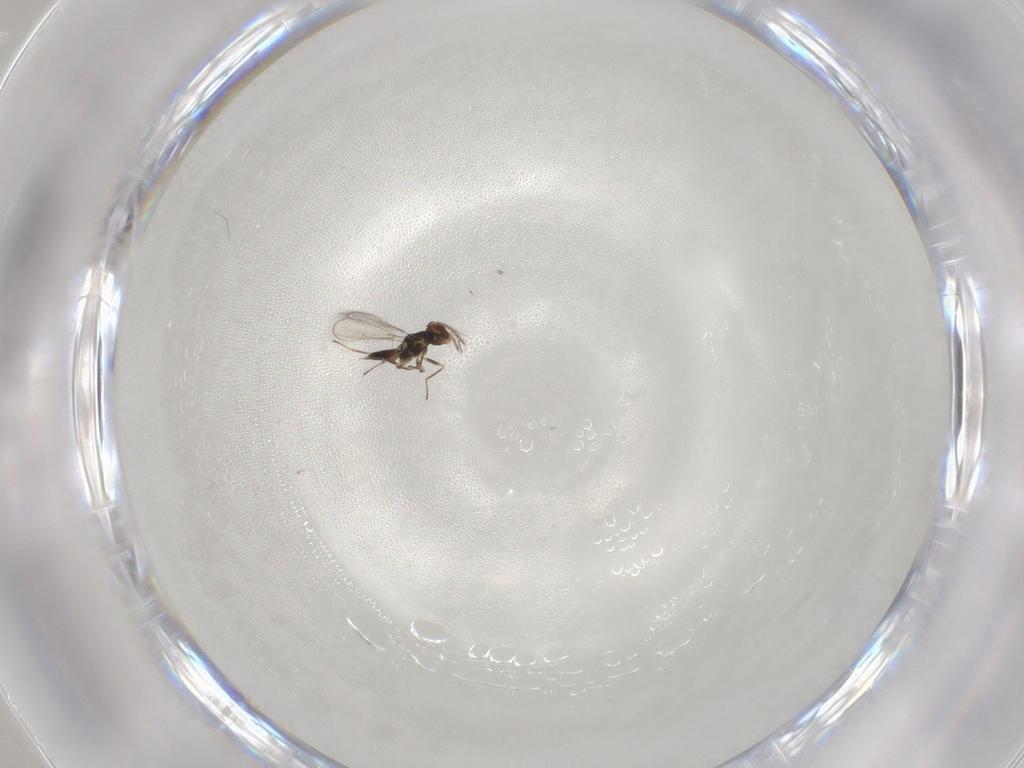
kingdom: Animalia
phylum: Arthropoda
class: Insecta
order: Hymenoptera
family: Eulophidae
